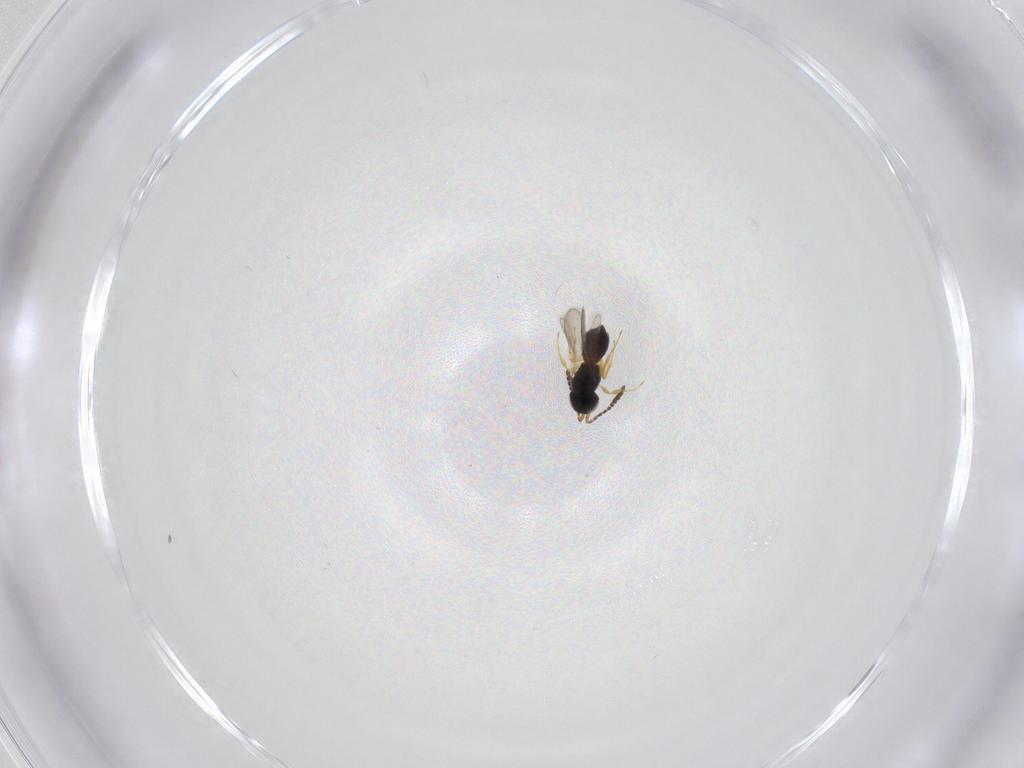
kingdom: Animalia
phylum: Arthropoda
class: Insecta
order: Hymenoptera
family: Scelionidae
